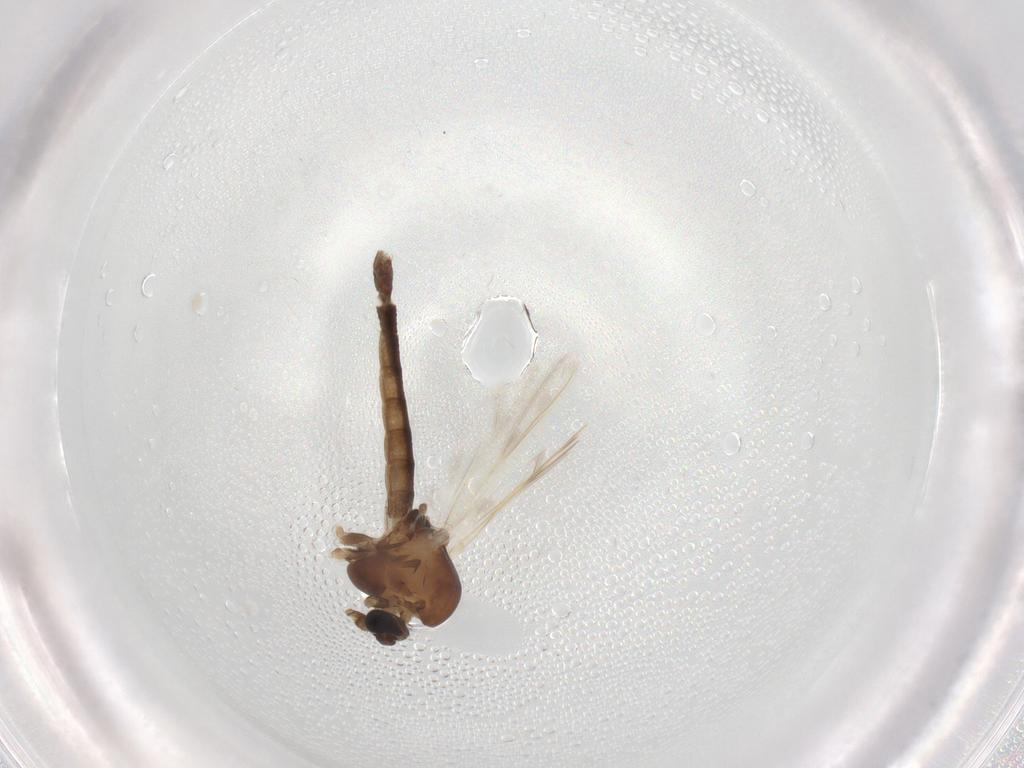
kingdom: Animalia
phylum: Arthropoda
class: Insecta
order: Diptera
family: Chironomidae
